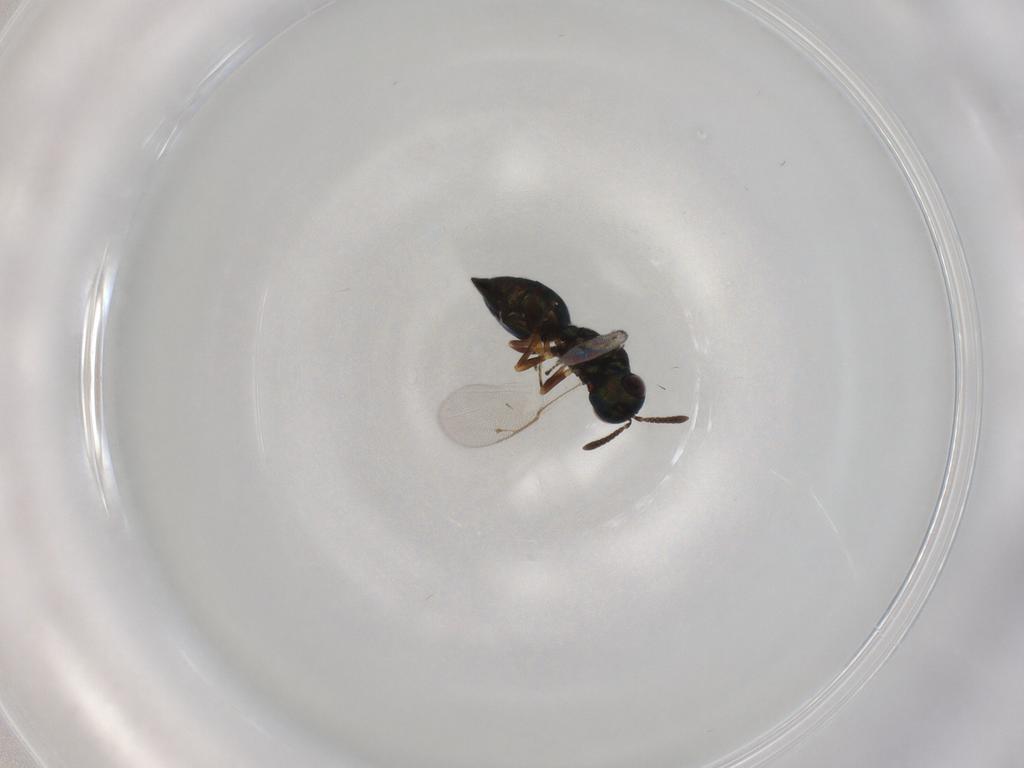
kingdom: Animalia
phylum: Arthropoda
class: Insecta
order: Hymenoptera
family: Pteromalidae
